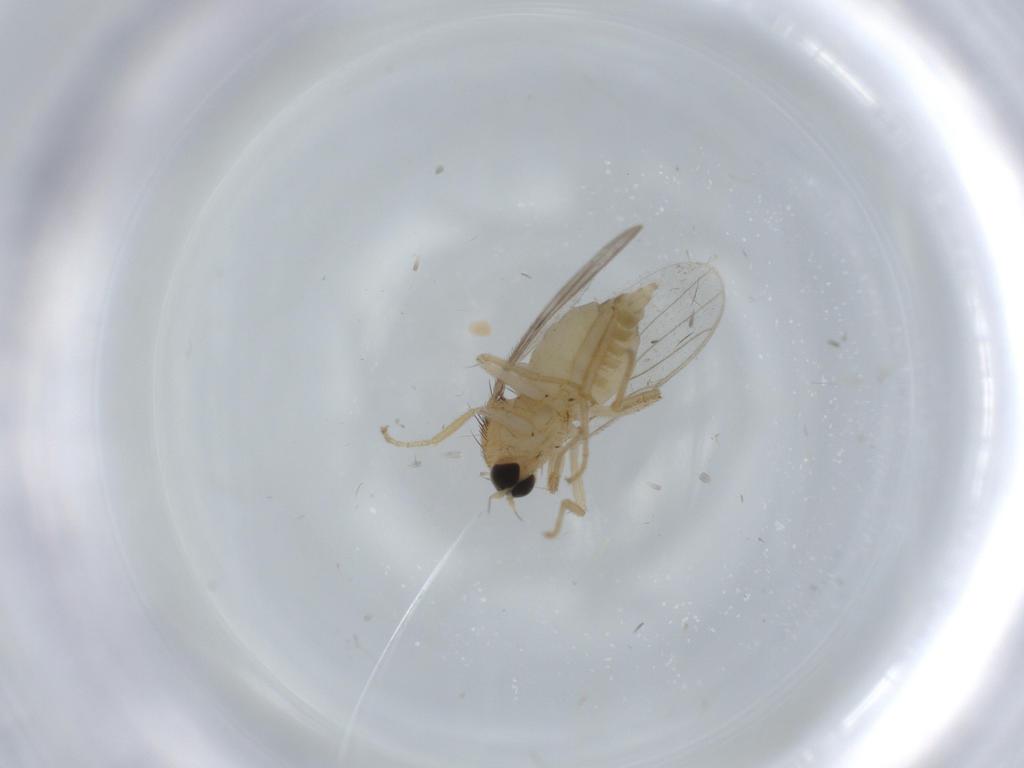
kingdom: Animalia
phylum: Arthropoda
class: Insecta
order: Diptera
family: Hybotidae
